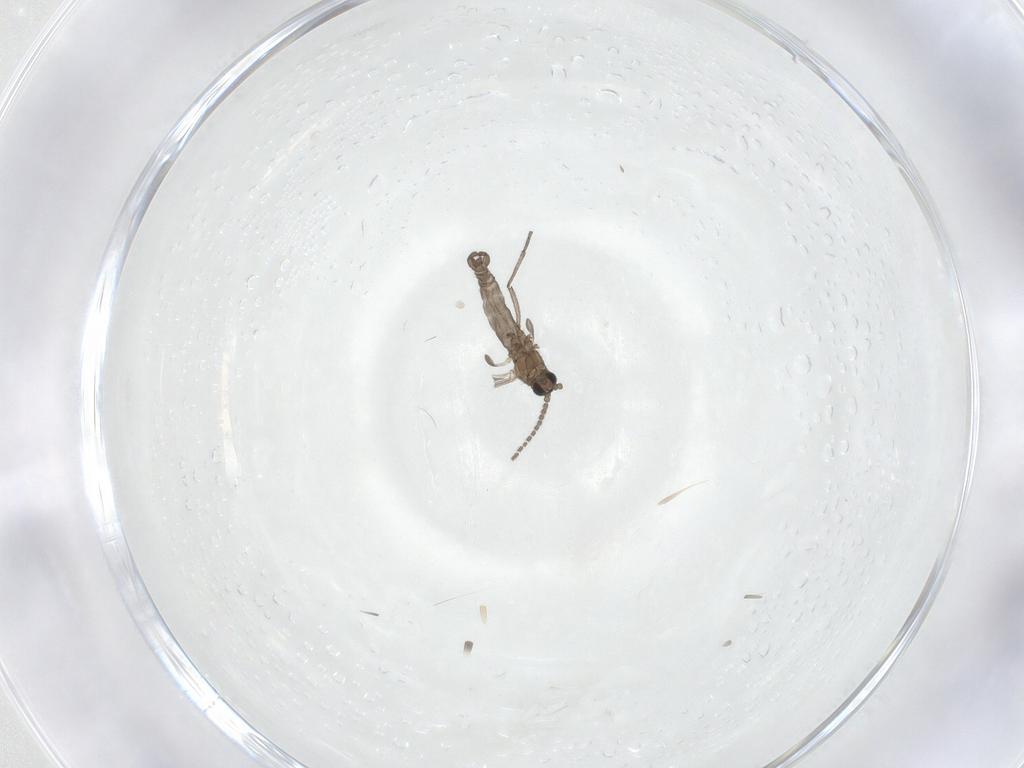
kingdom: Animalia
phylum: Arthropoda
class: Insecta
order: Diptera
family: Sciaridae
